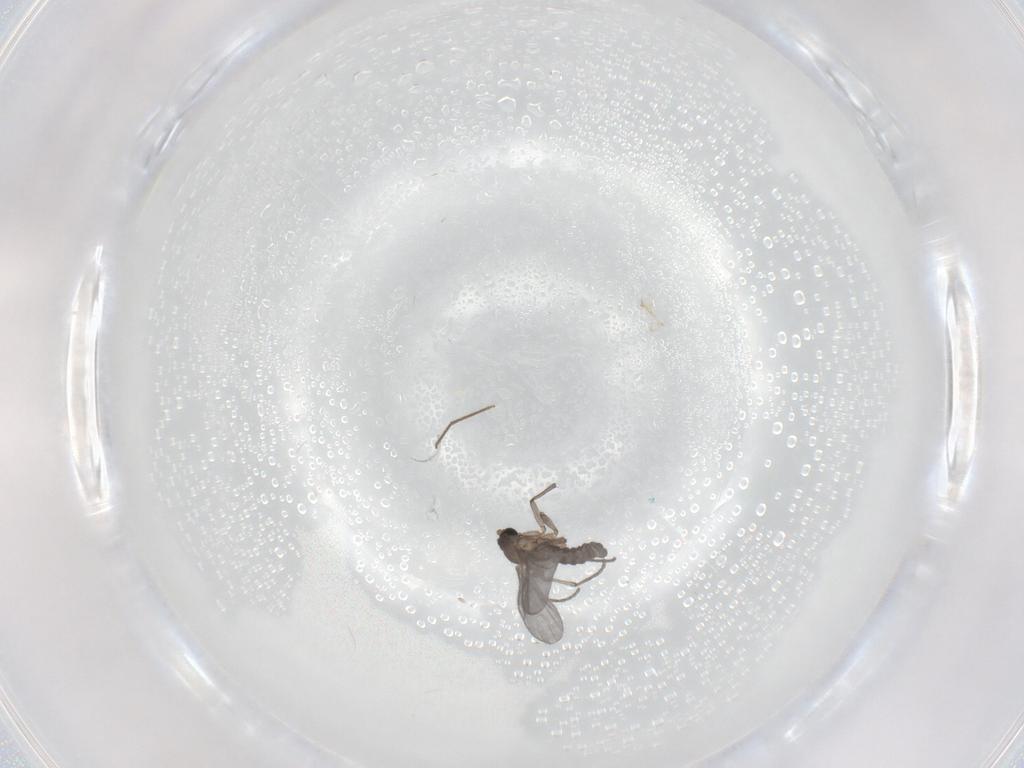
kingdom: Animalia
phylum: Arthropoda
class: Insecta
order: Diptera
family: Sciaridae
